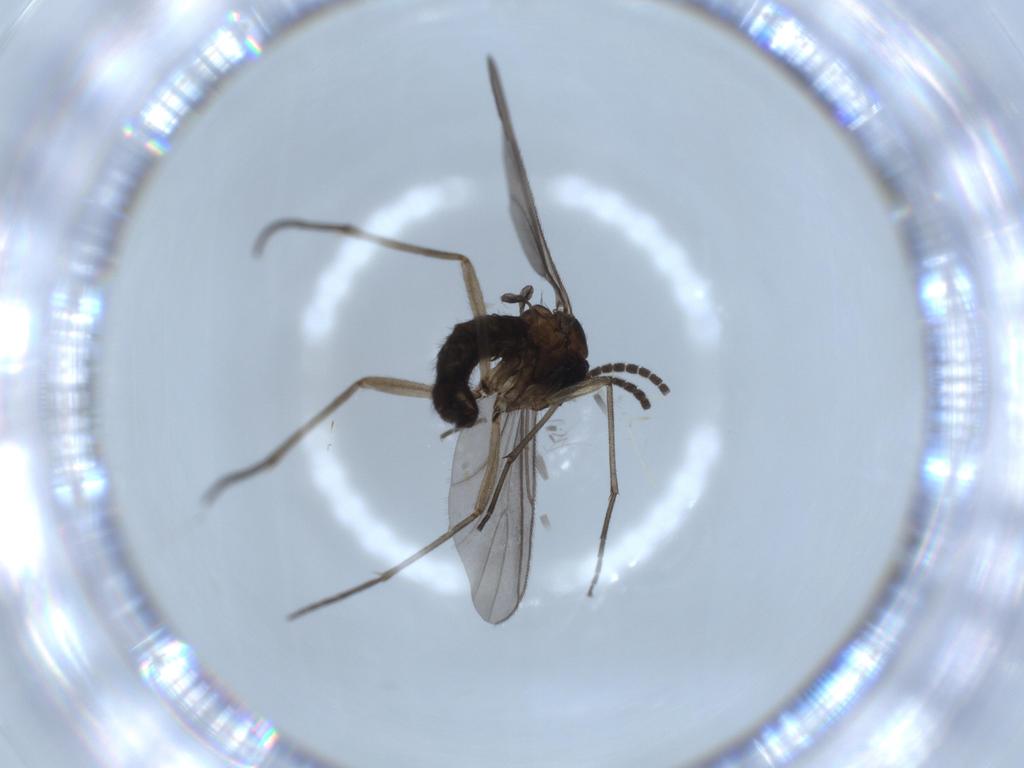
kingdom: Animalia
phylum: Arthropoda
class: Insecta
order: Diptera
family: Sciaridae
